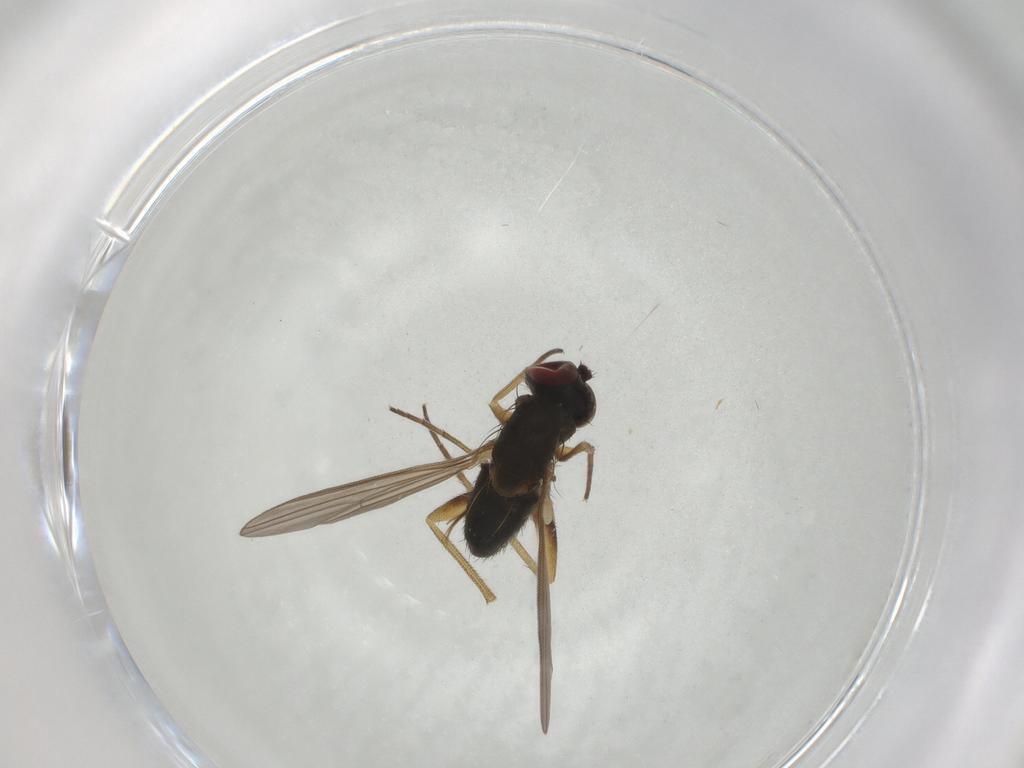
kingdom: Animalia
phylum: Arthropoda
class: Insecta
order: Diptera
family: Dolichopodidae
